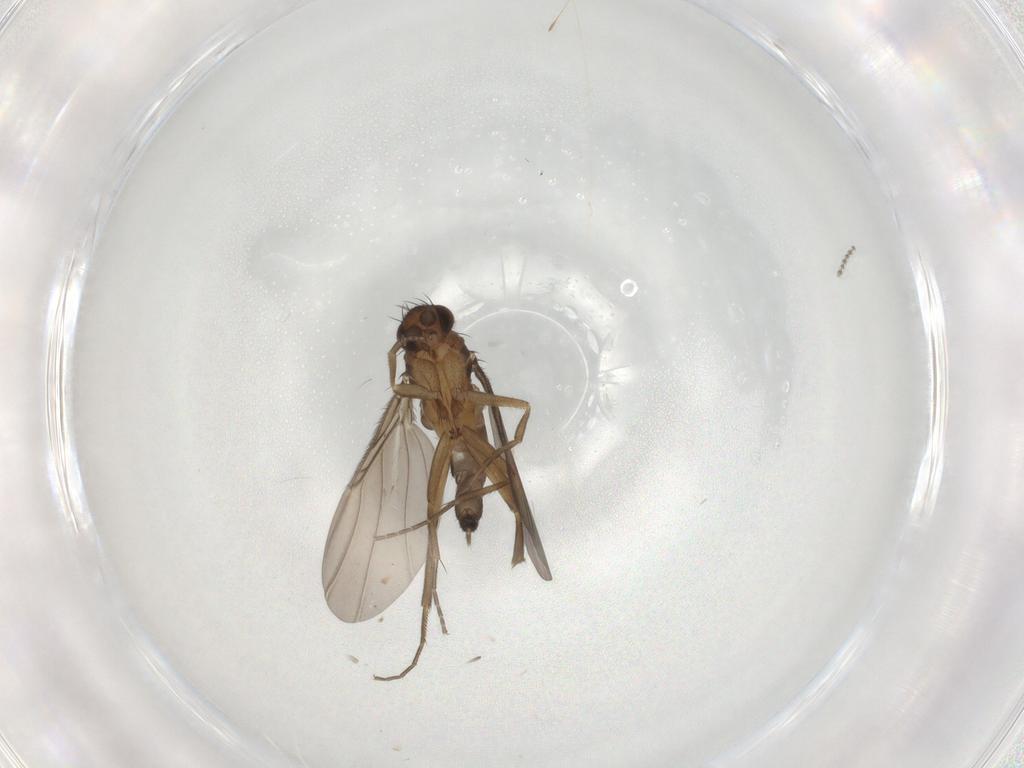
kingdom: Animalia
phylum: Arthropoda
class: Insecta
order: Diptera
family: Phoridae
